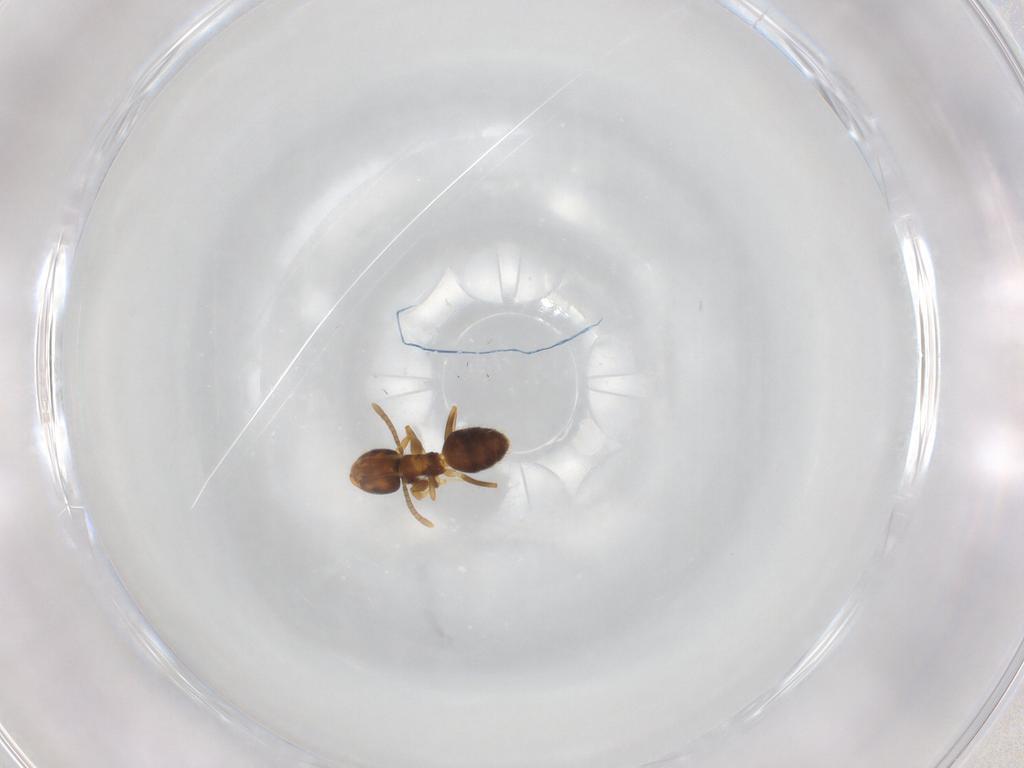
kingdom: Animalia
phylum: Arthropoda
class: Insecta
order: Hymenoptera
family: Formicidae
